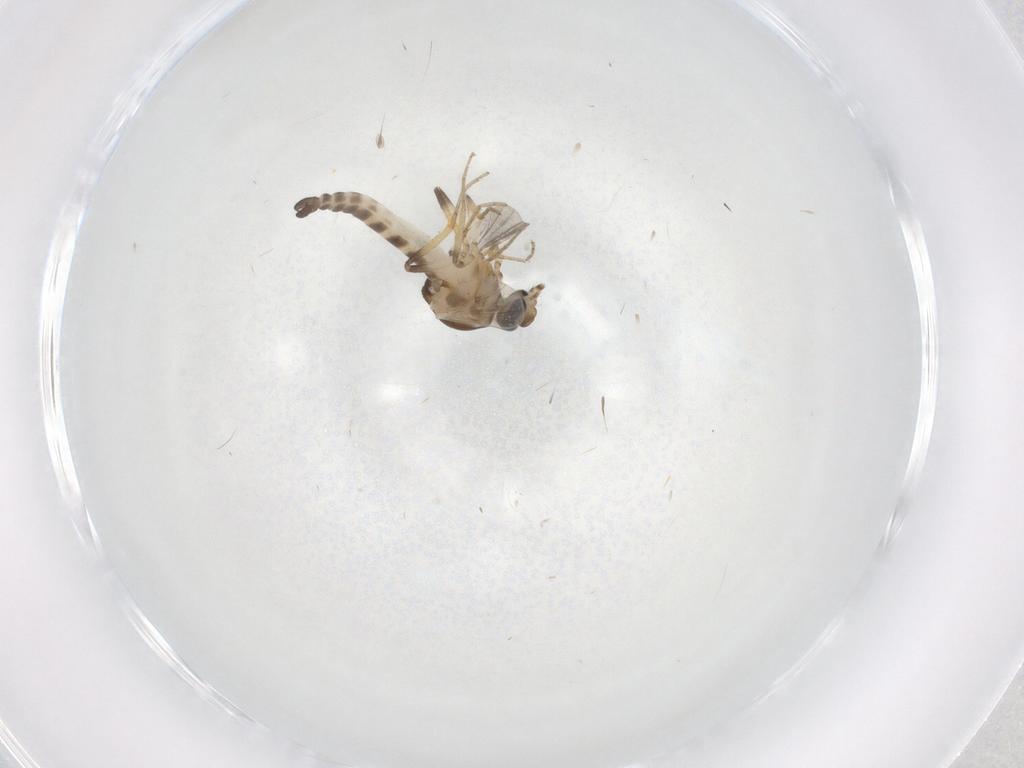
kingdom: Animalia
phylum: Arthropoda
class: Insecta
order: Diptera
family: Ceratopogonidae
